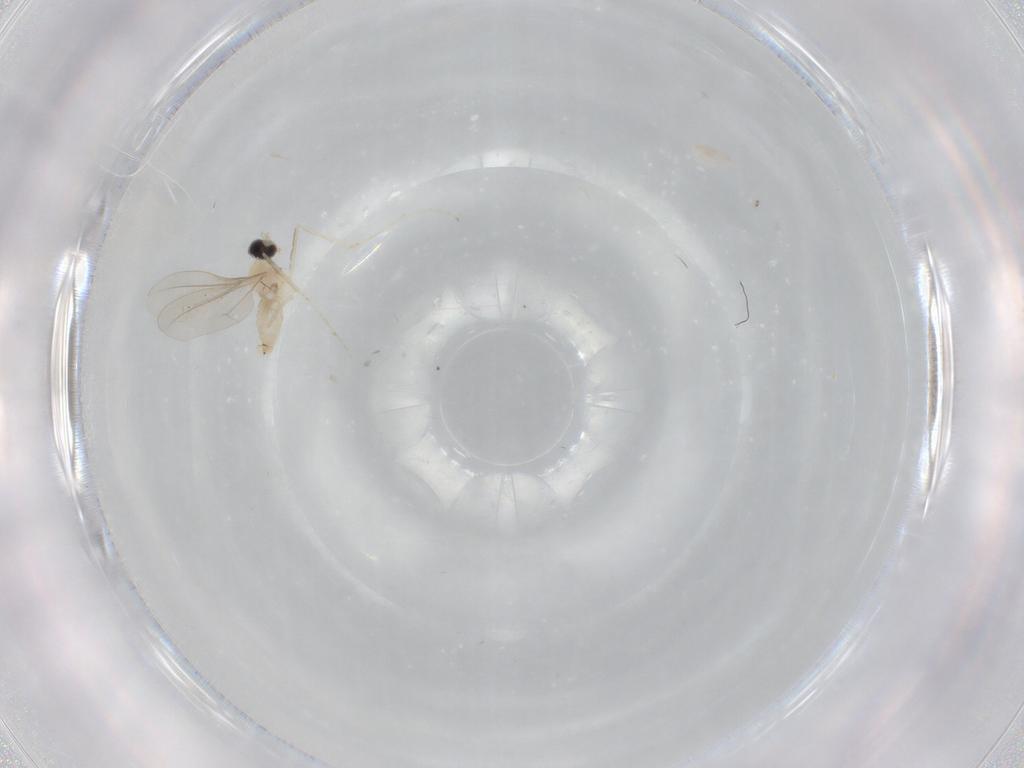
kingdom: Animalia
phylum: Arthropoda
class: Insecta
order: Diptera
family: Cecidomyiidae
